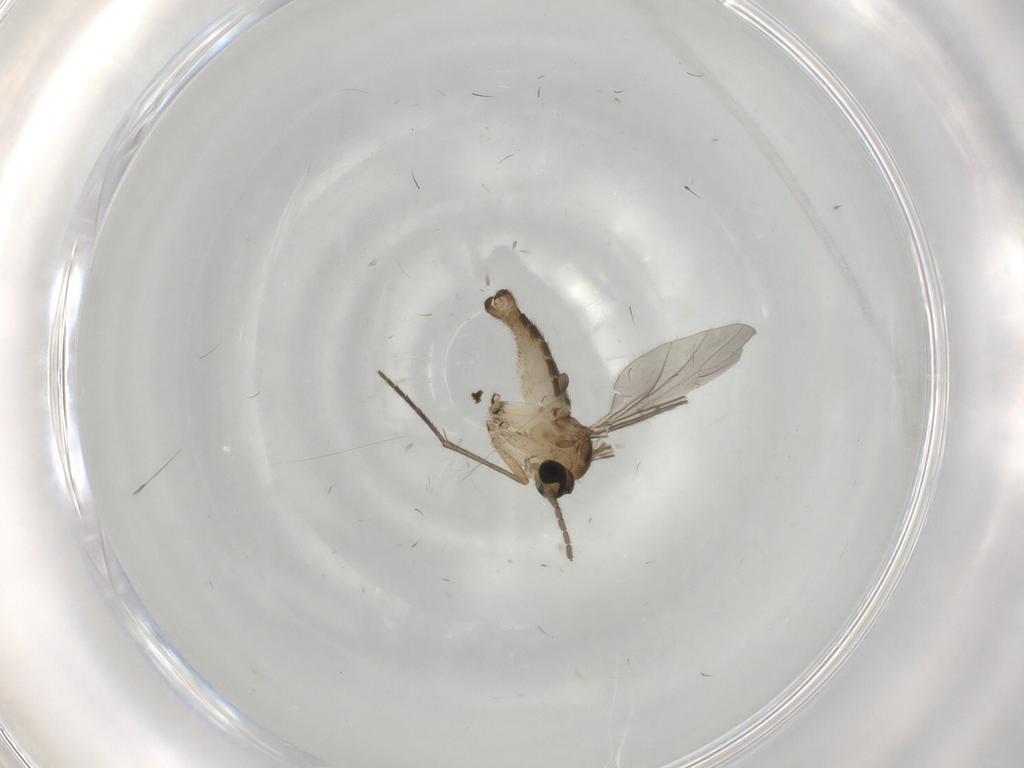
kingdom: Animalia
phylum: Arthropoda
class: Insecta
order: Diptera
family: Sciaridae
